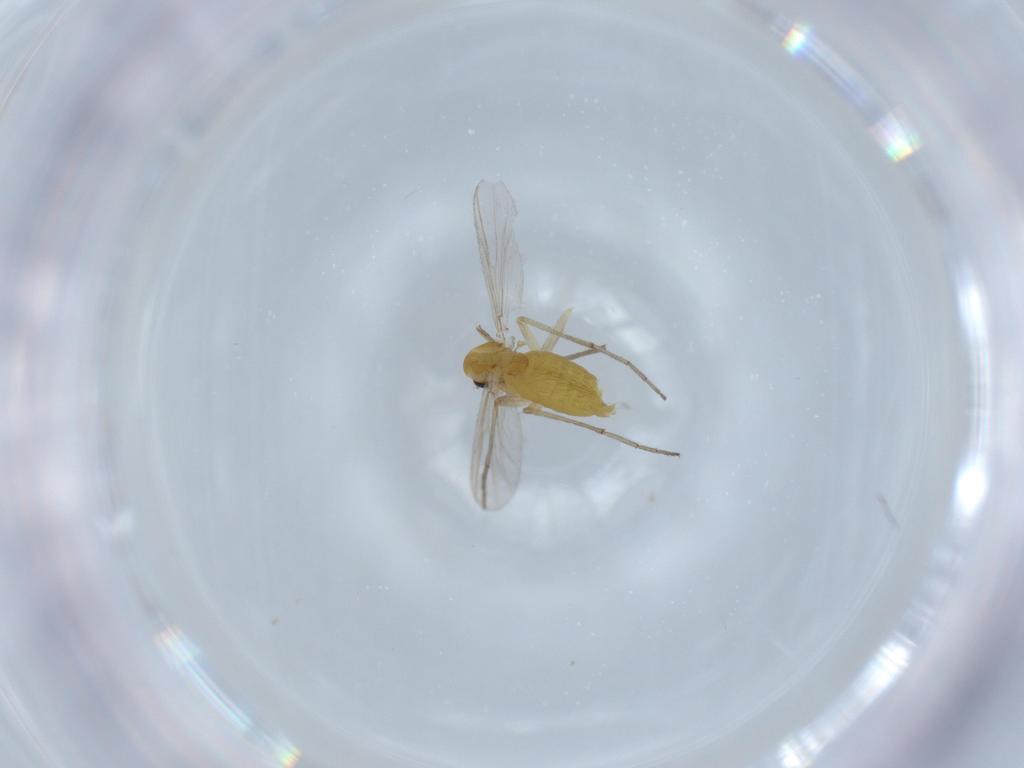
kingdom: Animalia
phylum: Arthropoda
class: Insecta
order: Diptera
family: Chironomidae
